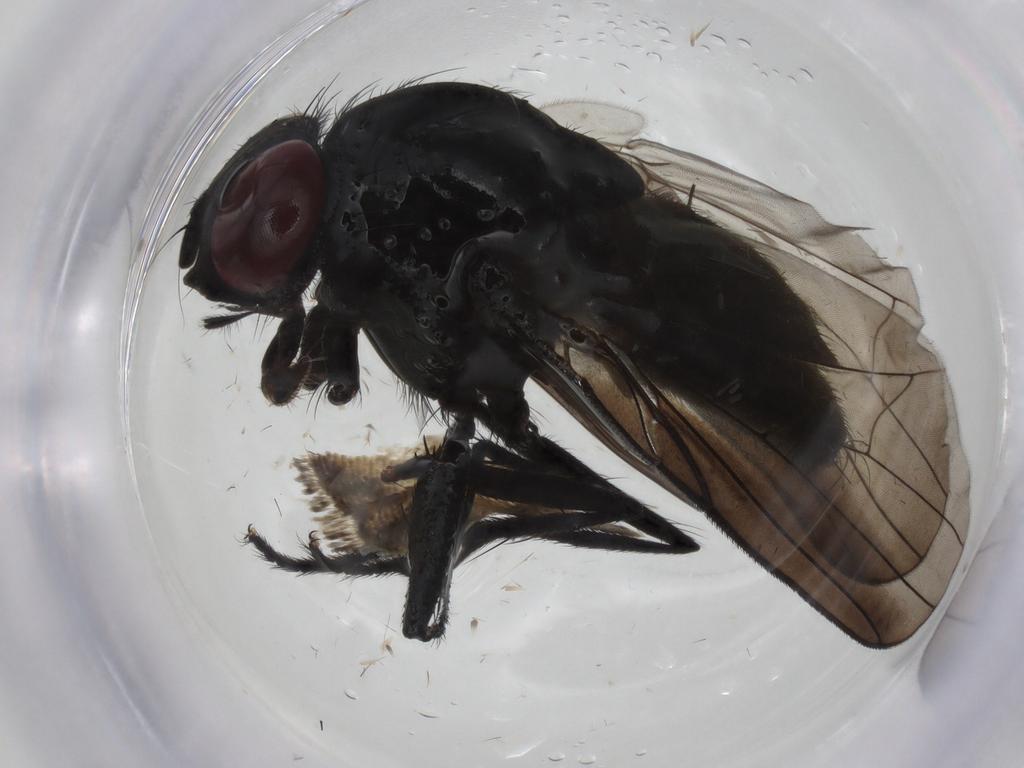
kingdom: Animalia
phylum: Arthropoda
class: Insecta
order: Diptera
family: Fanniidae
